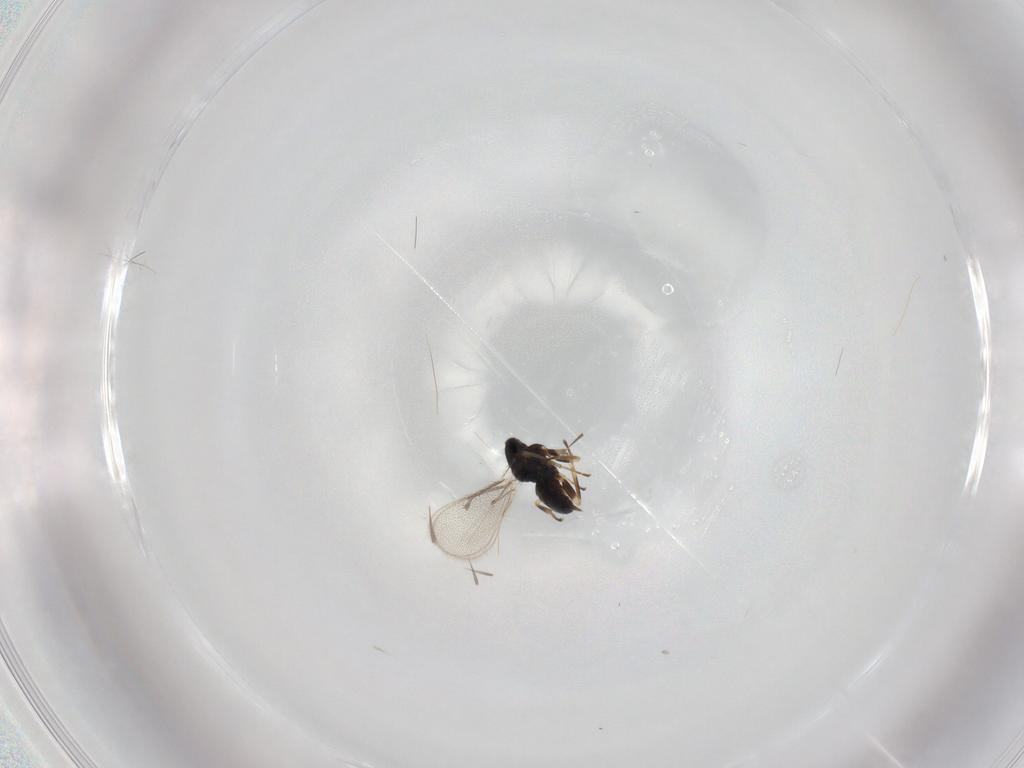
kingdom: Animalia
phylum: Arthropoda
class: Insecta
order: Hymenoptera
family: Eulophidae
